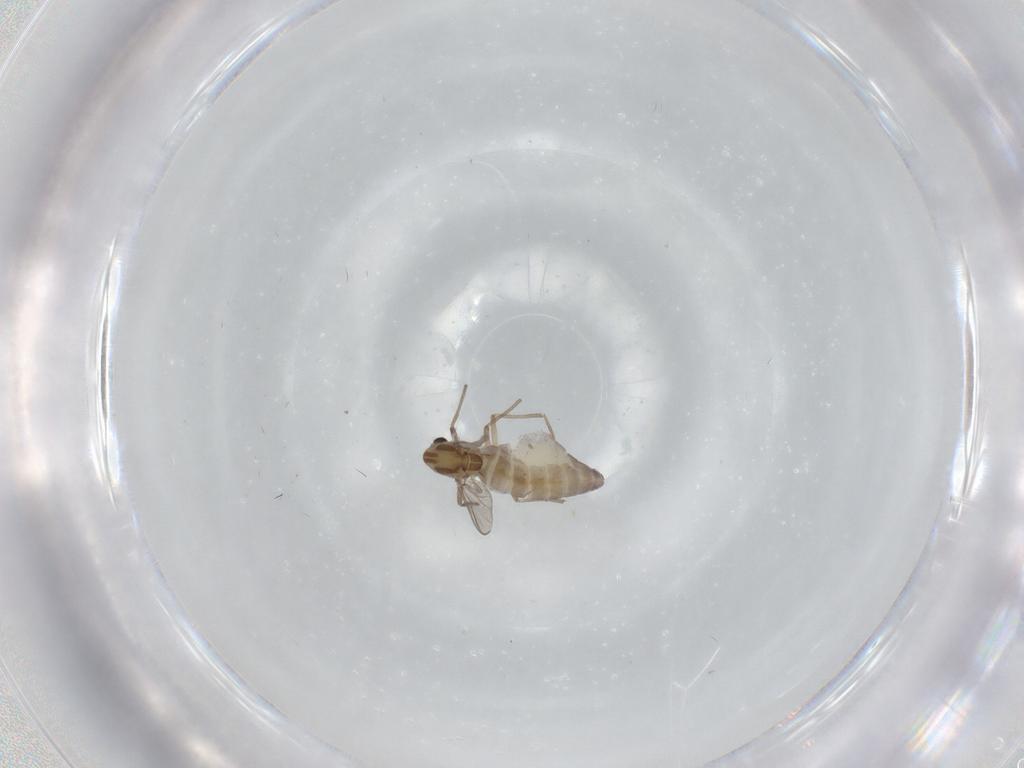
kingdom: Animalia
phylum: Arthropoda
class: Insecta
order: Diptera
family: Chironomidae
